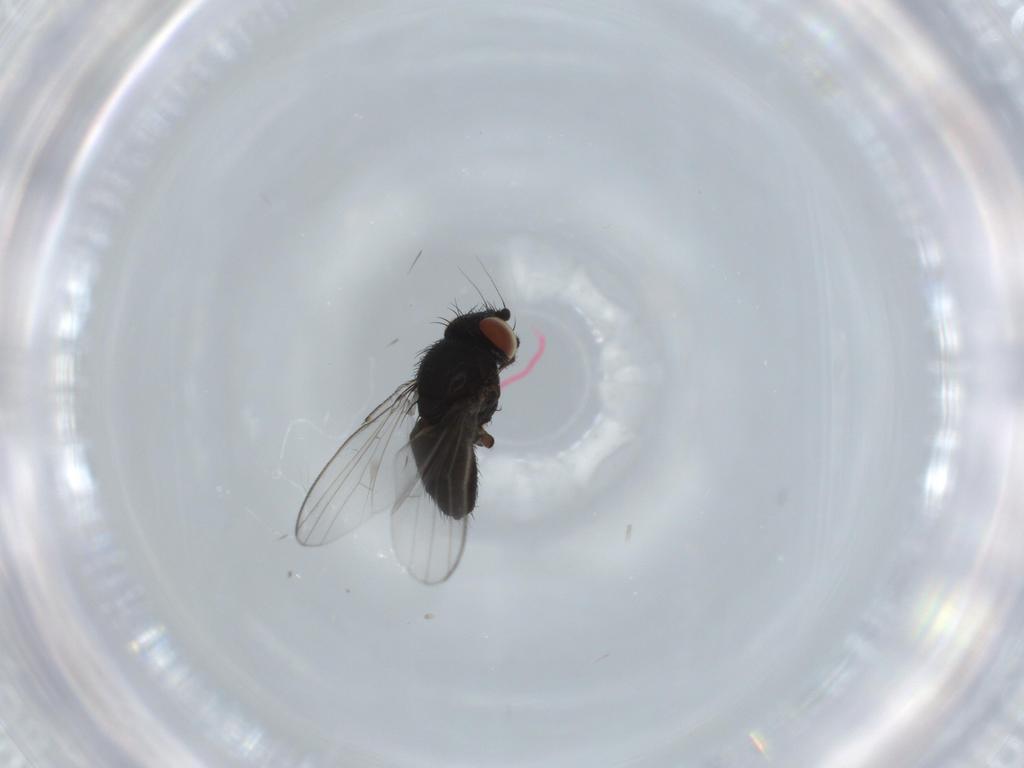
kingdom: Animalia
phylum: Arthropoda
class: Insecta
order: Diptera
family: Milichiidae
